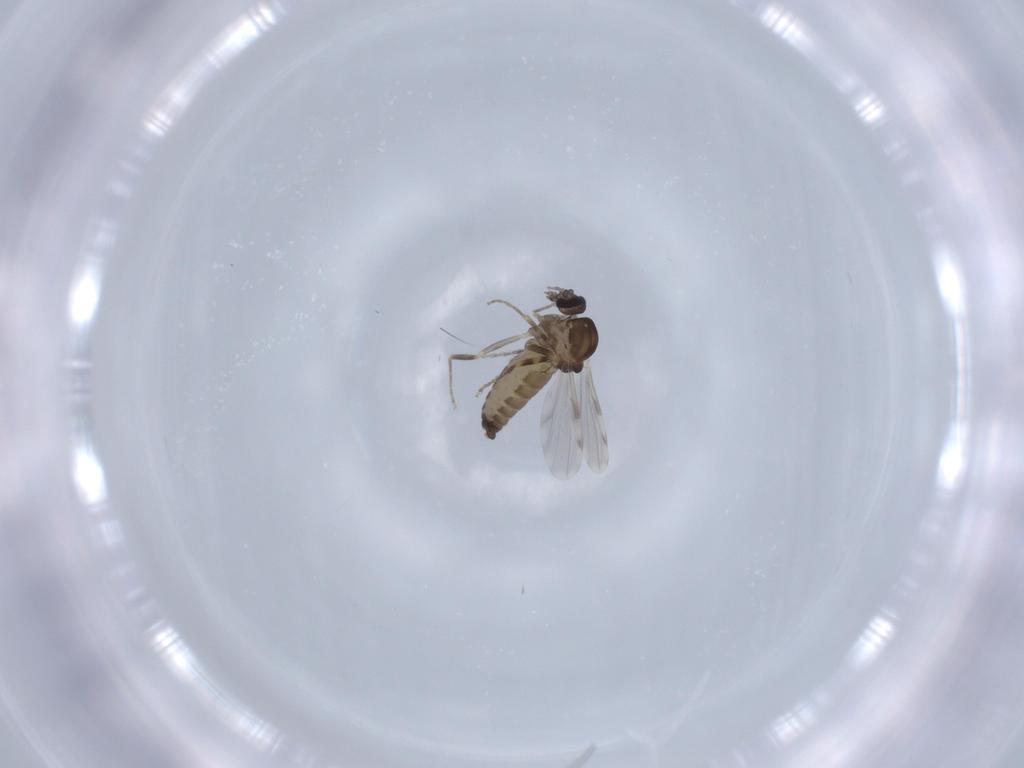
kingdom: Animalia
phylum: Arthropoda
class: Insecta
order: Diptera
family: Ceratopogonidae
